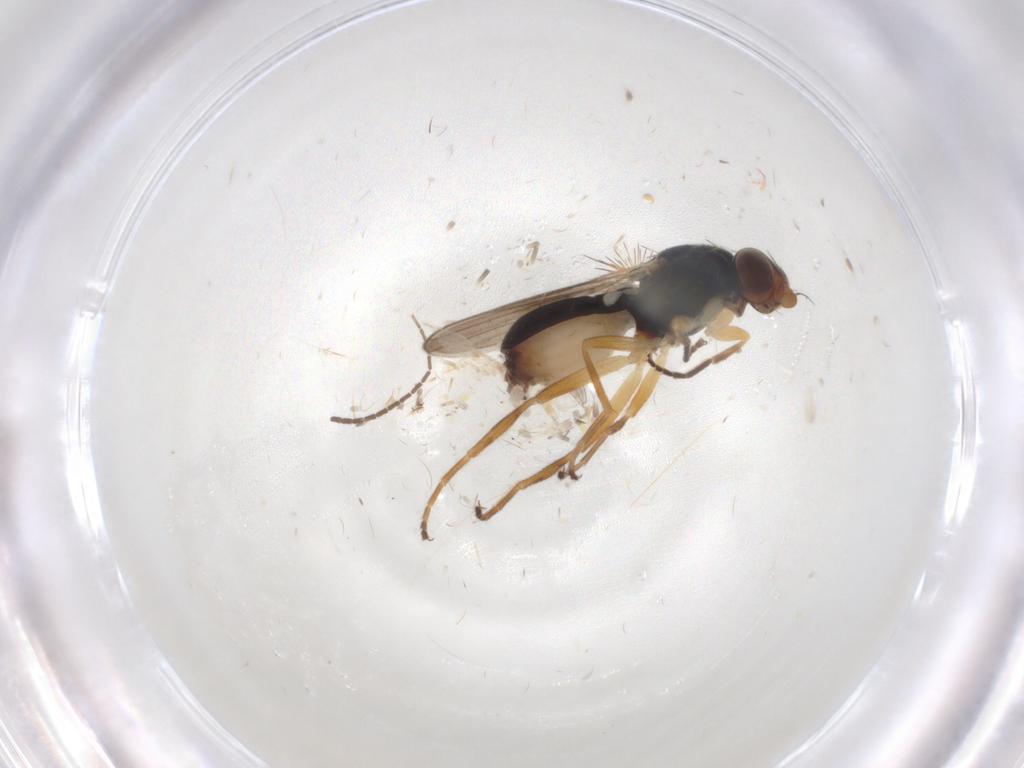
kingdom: Animalia
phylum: Arthropoda
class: Insecta
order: Diptera
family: Chloropidae
